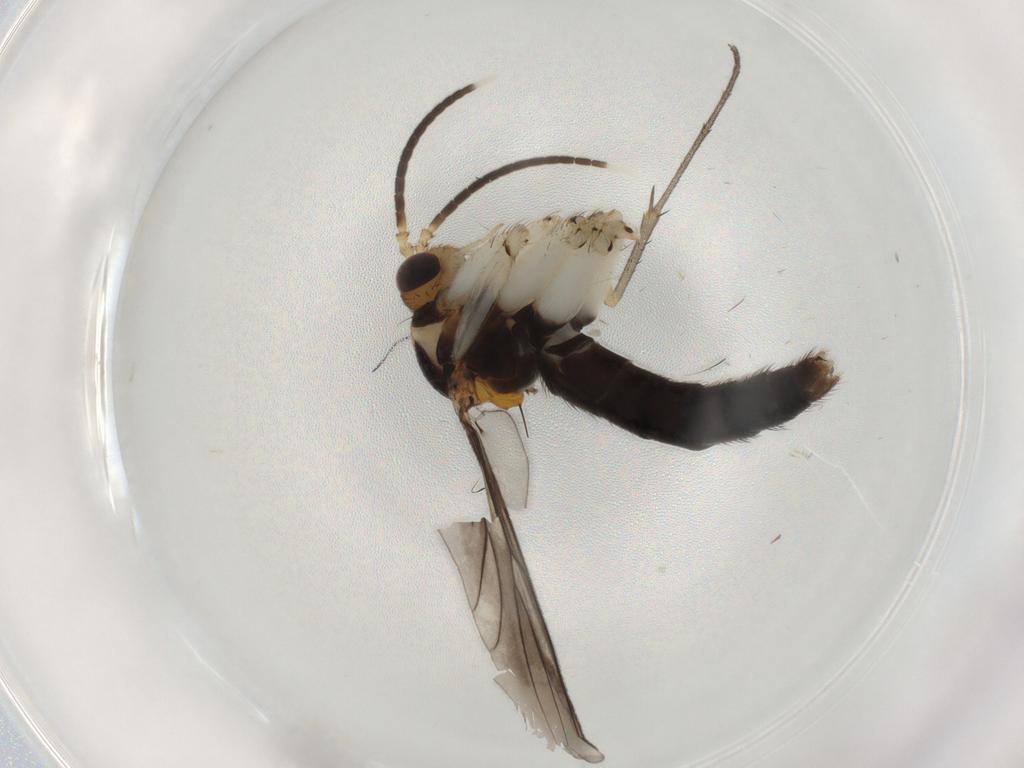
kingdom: Animalia
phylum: Arthropoda
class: Insecta
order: Diptera
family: Mycetophilidae
